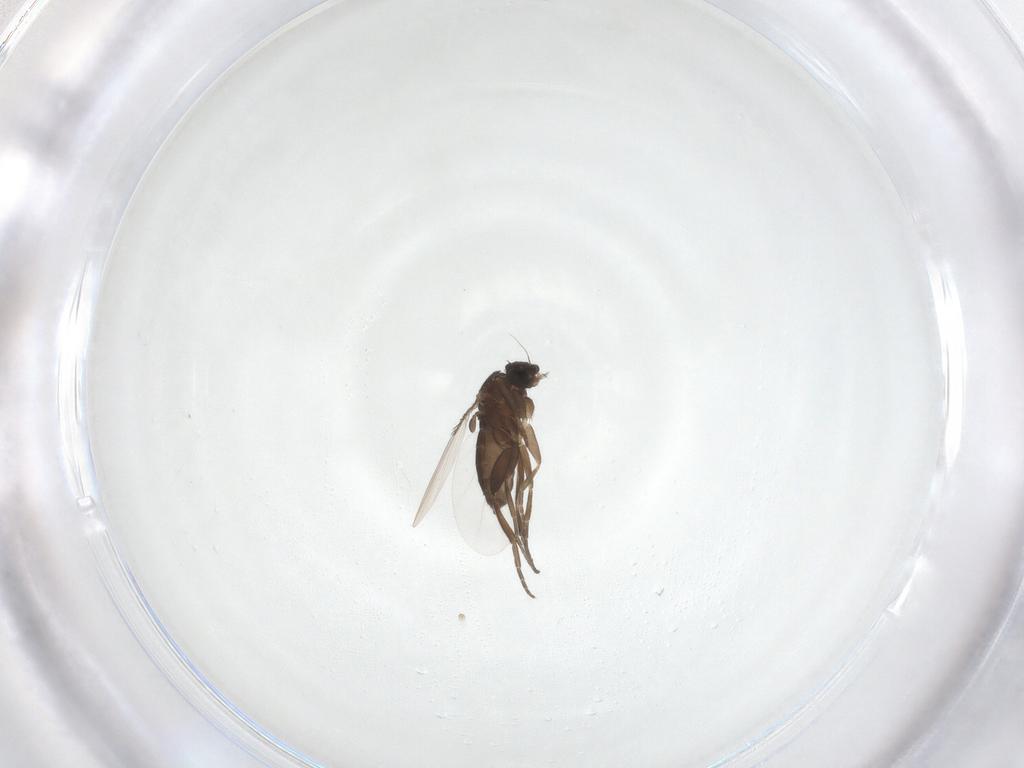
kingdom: Animalia
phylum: Arthropoda
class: Insecta
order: Diptera
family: Phoridae
